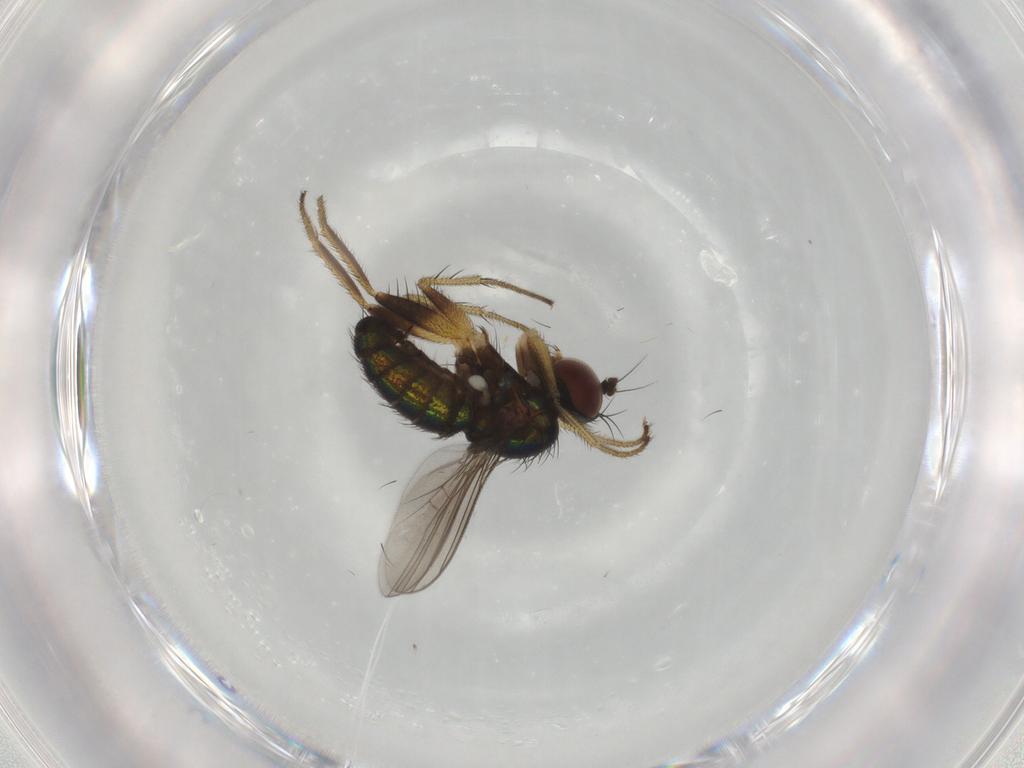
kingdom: Animalia
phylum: Arthropoda
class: Insecta
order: Diptera
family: Dolichopodidae
